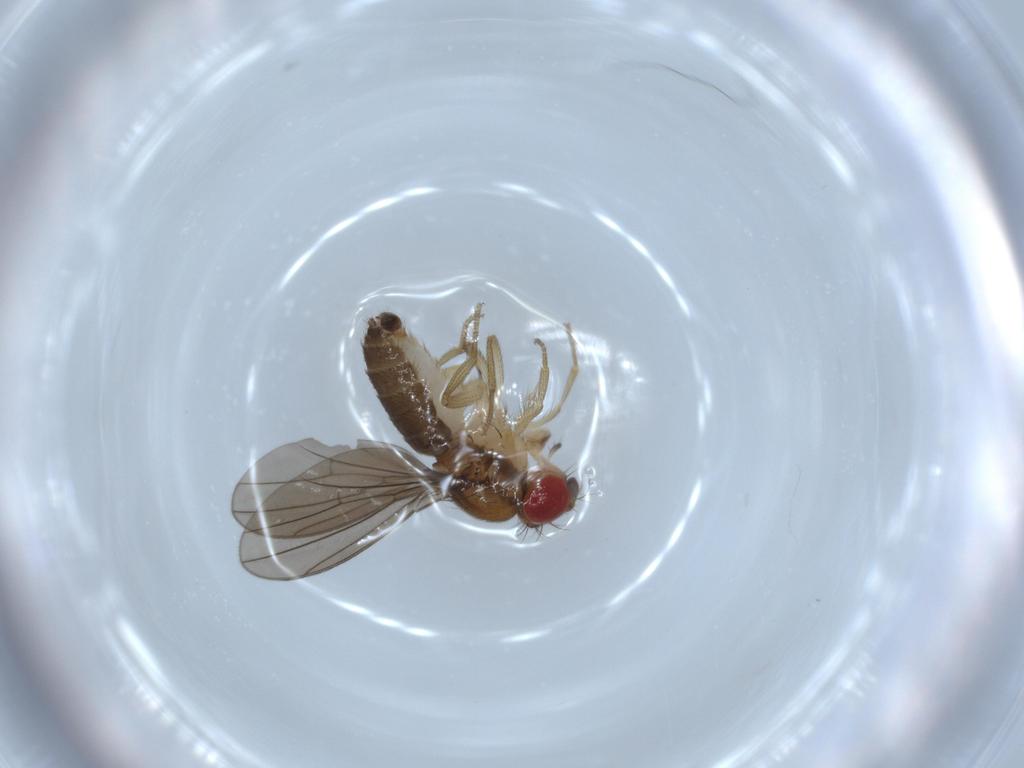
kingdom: Animalia
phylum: Arthropoda
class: Insecta
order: Diptera
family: Drosophilidae
